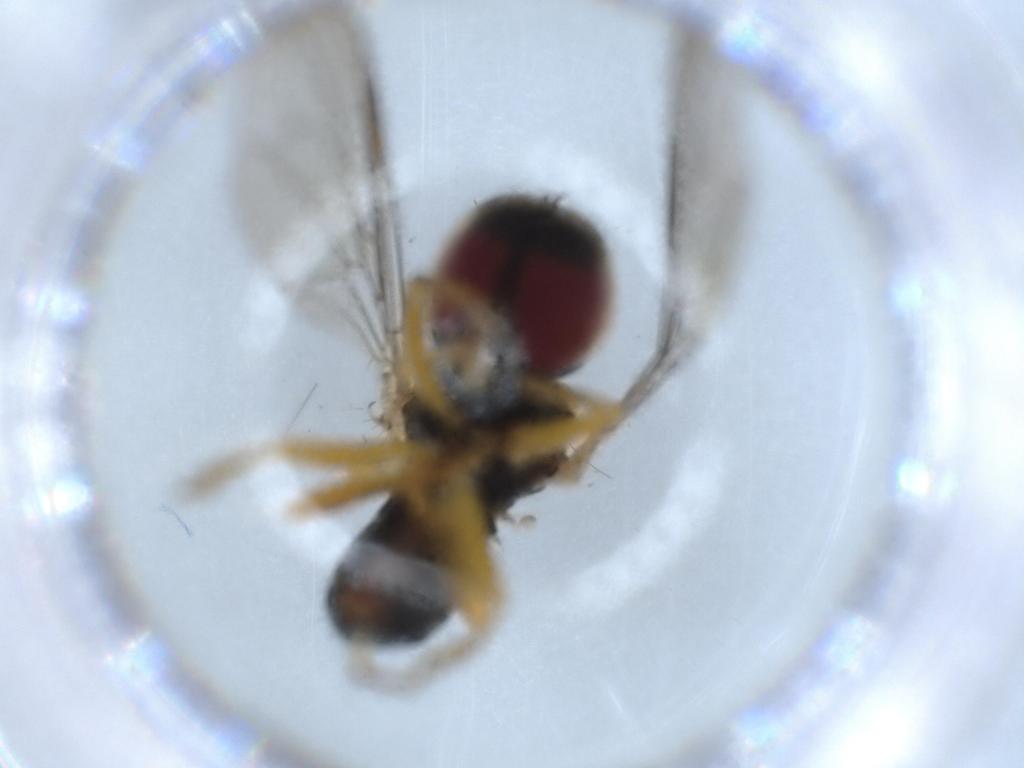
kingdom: Animalia
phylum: Arthropoda
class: Insecta
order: Diptera
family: Pipunculidae
